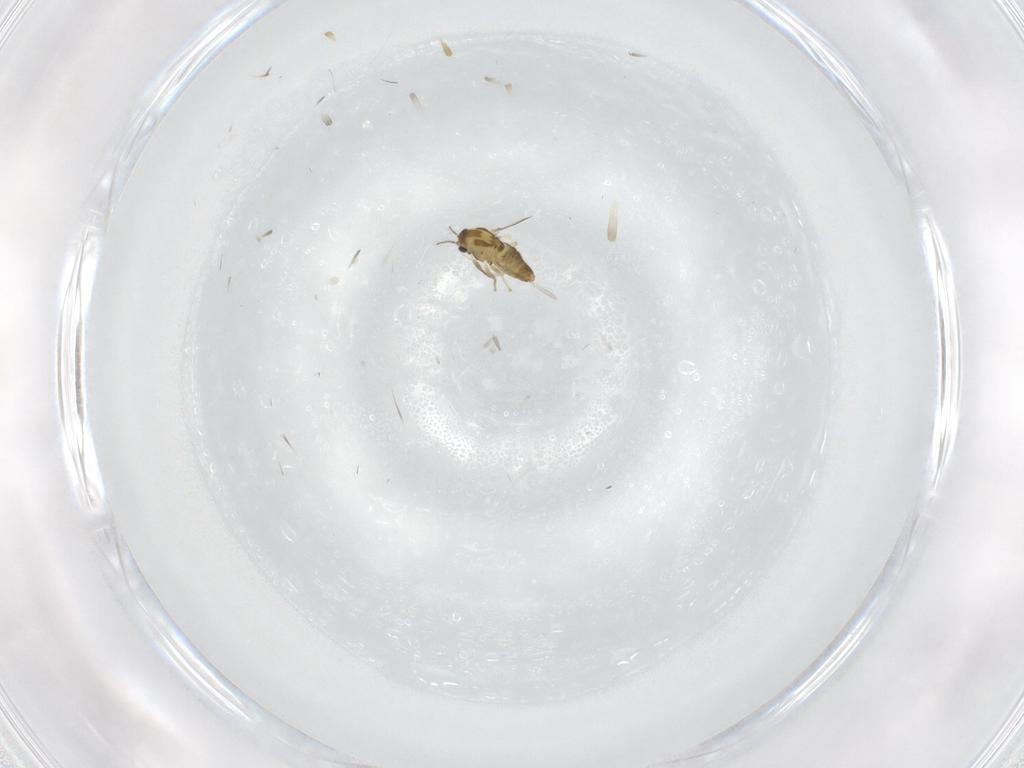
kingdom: Animalia
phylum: Arthropoda
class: Insecta
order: Diptera
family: Chironomidae
